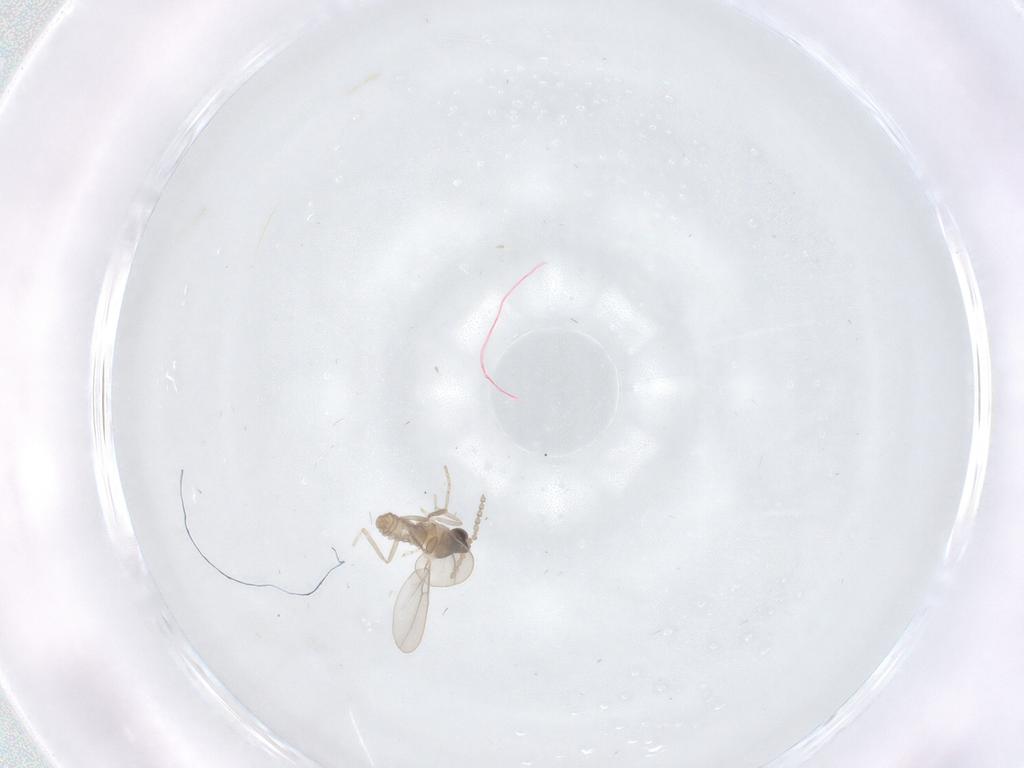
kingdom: Animalia
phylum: Arthropoda
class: Insecta
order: Diptera
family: Cecidomyiidae
